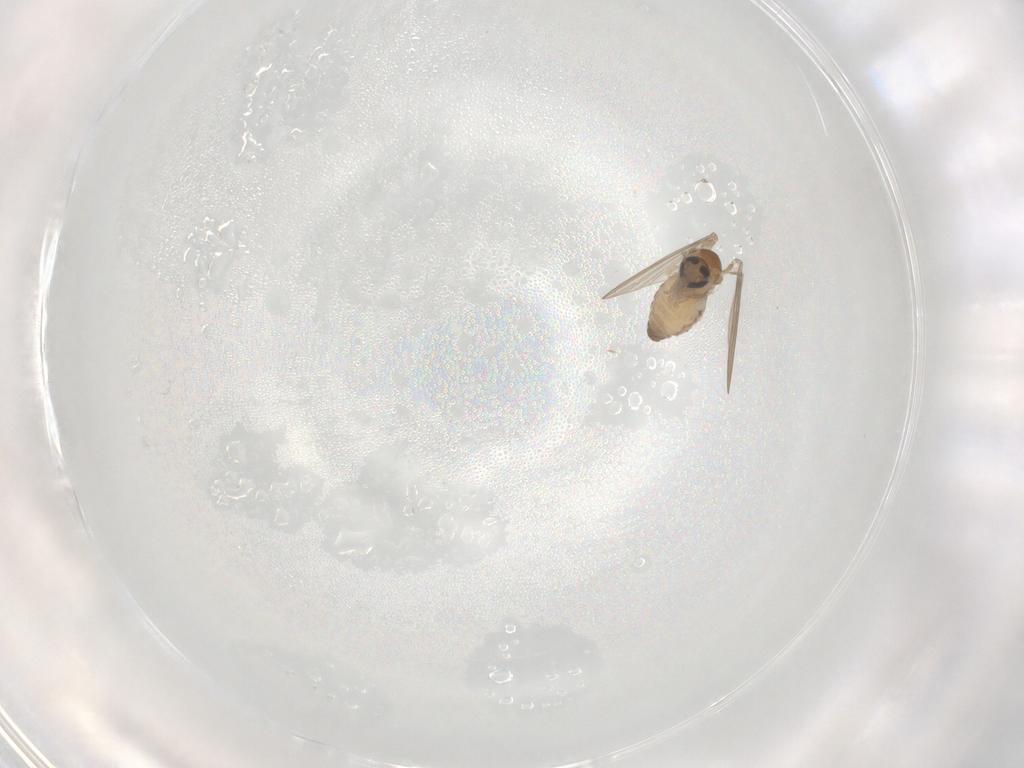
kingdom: Animalia
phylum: Arthropoda
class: Insecta
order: Diptera
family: Milichiidae
